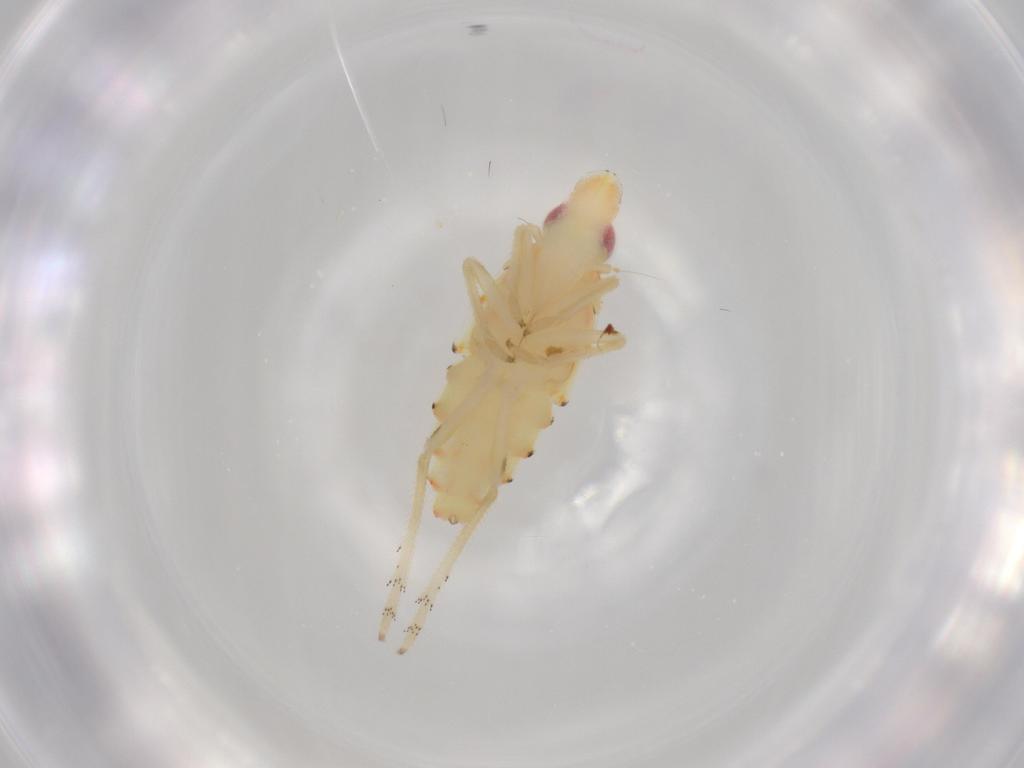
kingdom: Animalia
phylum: Arthropoda
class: Insecta
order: Hemiptera
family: Tropiduchidae
